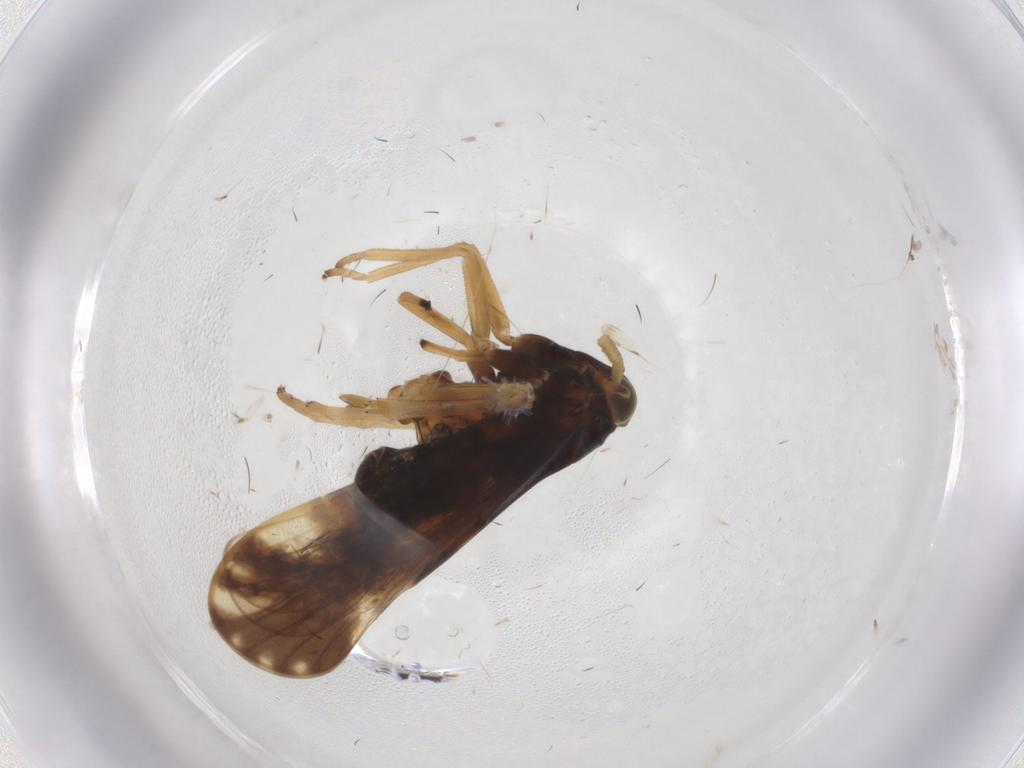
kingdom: Animalia
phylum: Arthropoda
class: Insecta
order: Hemiptera
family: Delphacidae
